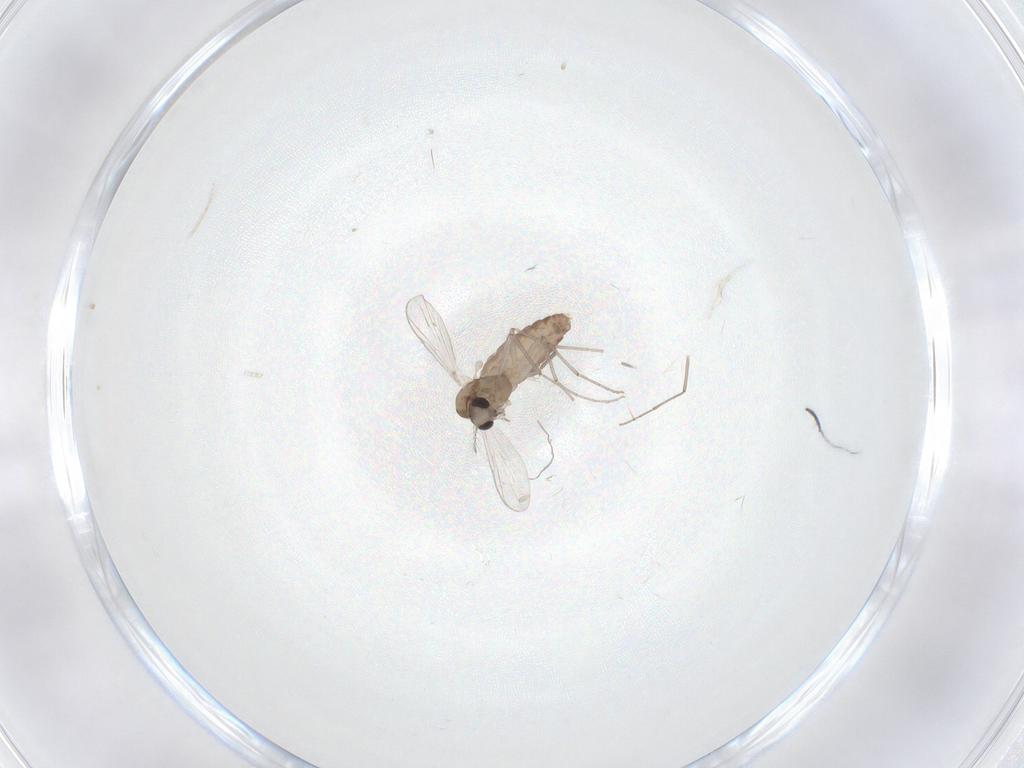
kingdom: Animalia
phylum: Arthropoda
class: Insecta
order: Diptera
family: Chironomidae
